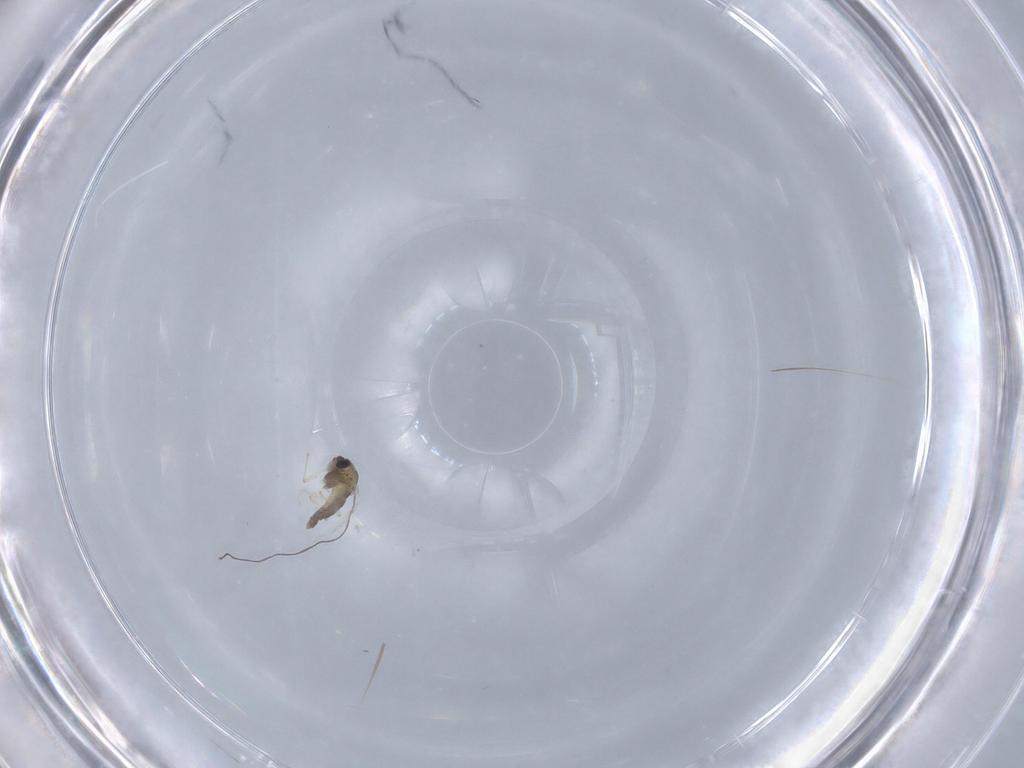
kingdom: Animalia
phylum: Arthropoda
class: Insecta
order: Diptera
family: Chironomidae
